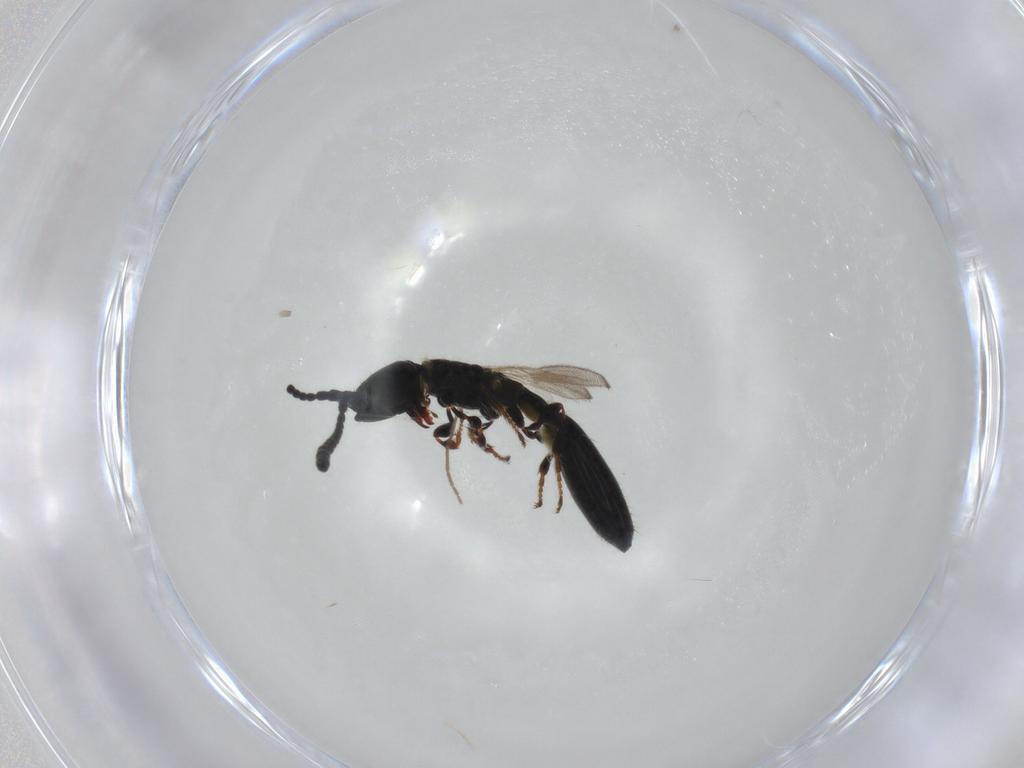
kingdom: Animalia
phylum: Arthropoda
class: Insecta
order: Hymenoptera
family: Diapriidae
